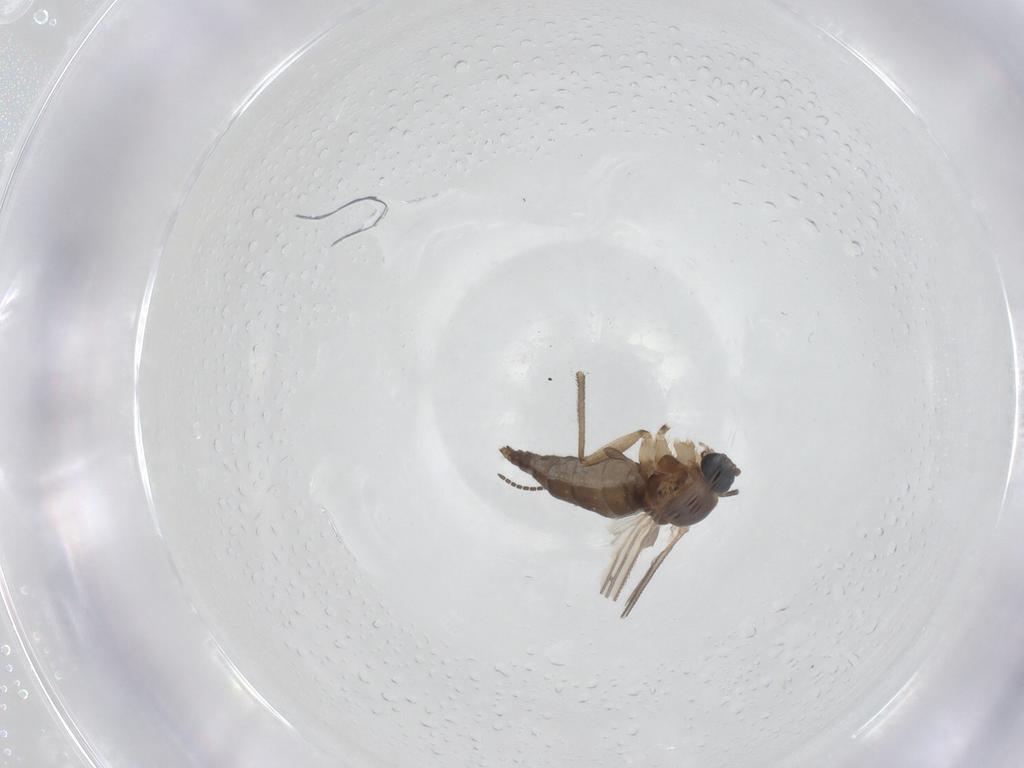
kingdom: Animalia
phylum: Arthropoda
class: Insecta
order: Diptera
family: Sciaridae
